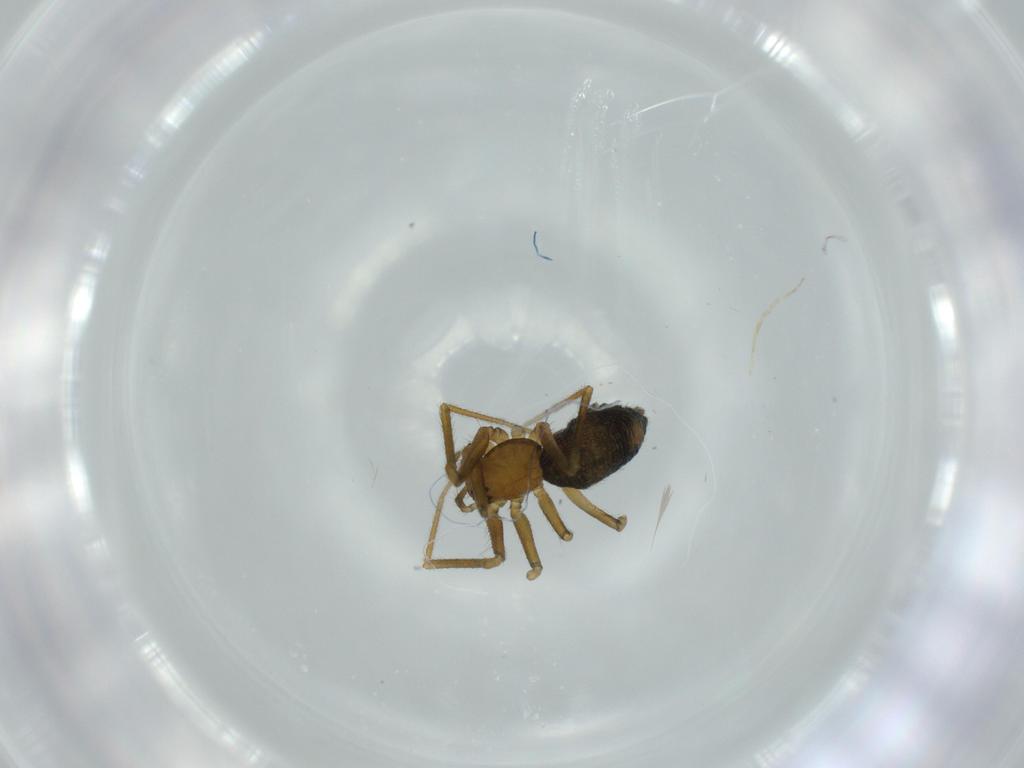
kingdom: Animalia
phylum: Arthropoda
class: Arachnida
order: Araneae
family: Linyphiidae
